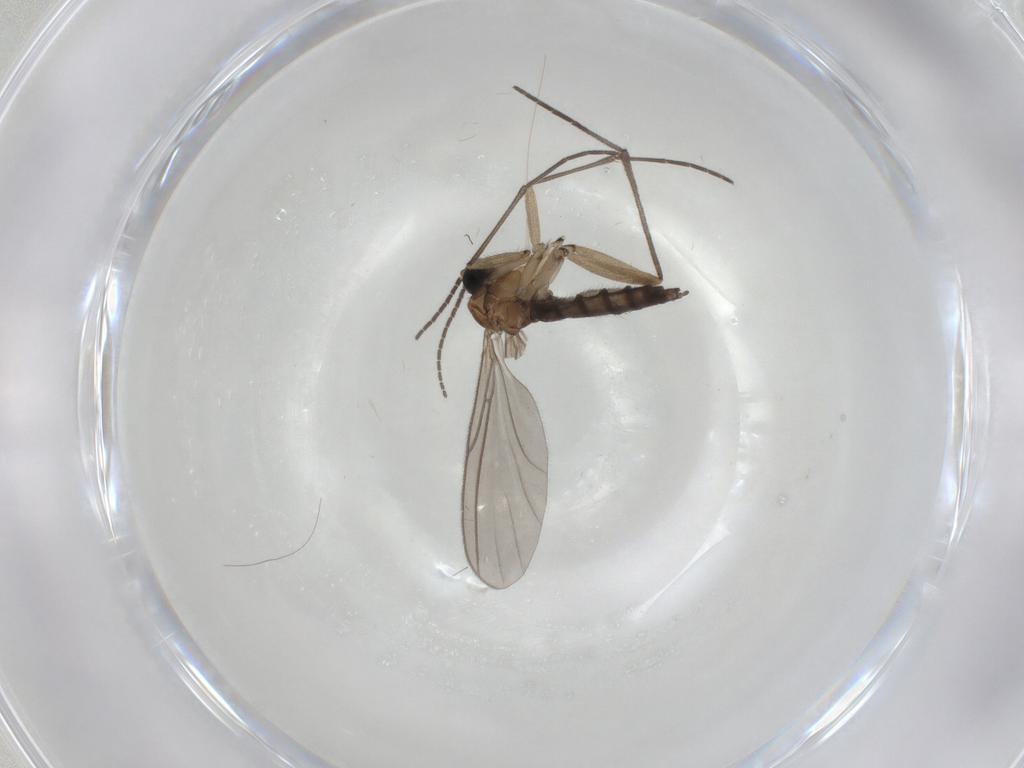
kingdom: Animalia
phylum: Arthropoda
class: Insecta
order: Diptera
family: Sciaridae
